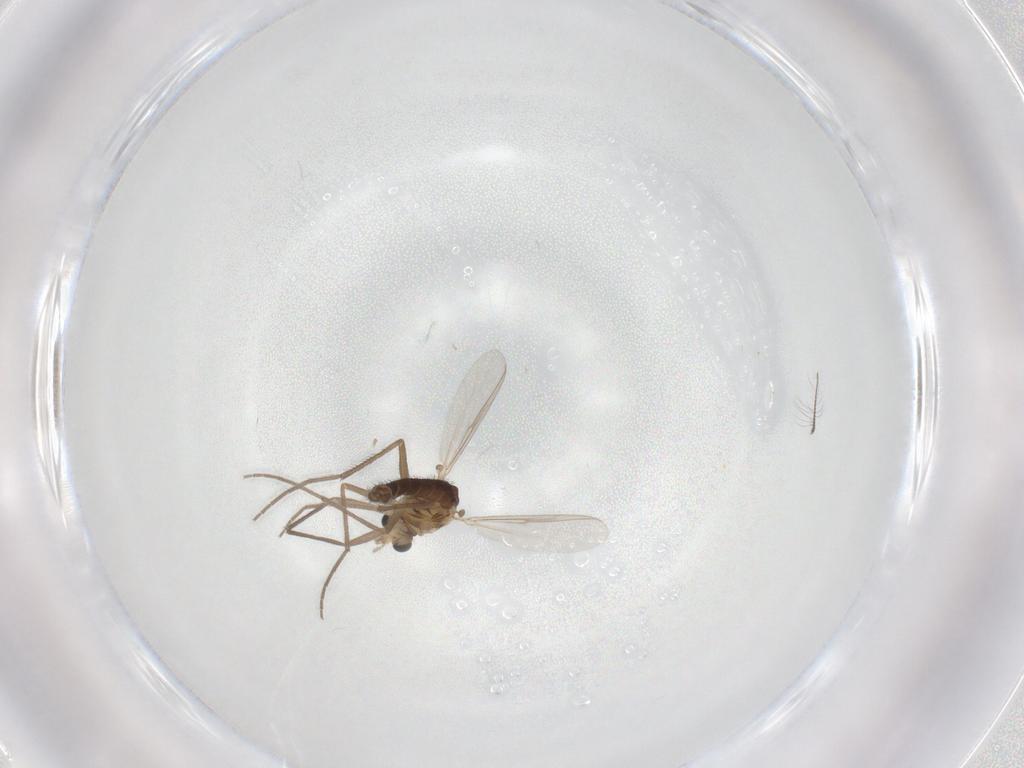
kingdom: Animalia
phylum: Arthropoda
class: Insecta
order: Diptera
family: Chironomidae
